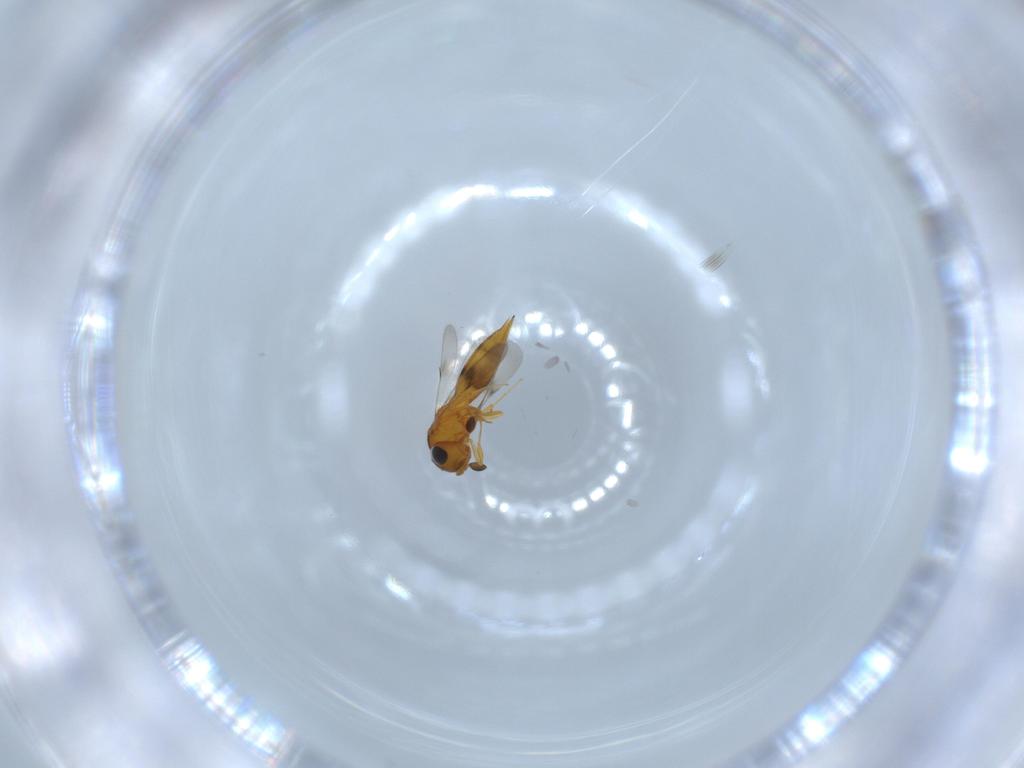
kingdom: Animalia
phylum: Arthropoda
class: Insecta
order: Hymenoptera
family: Scelionidae
